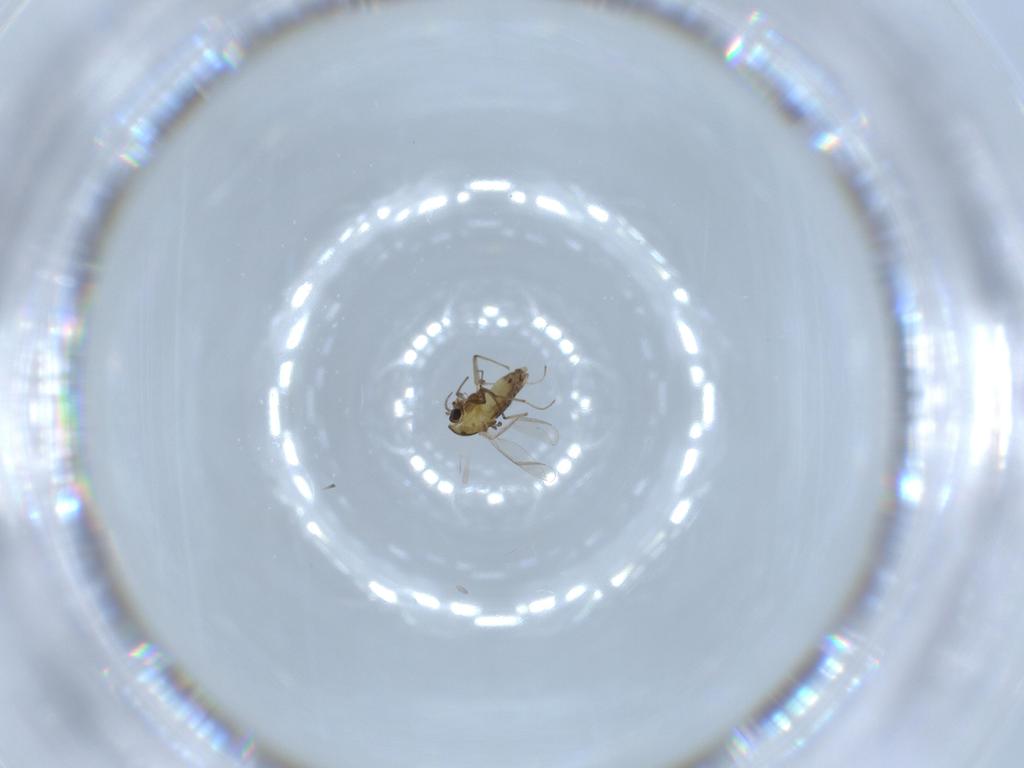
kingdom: Animalia
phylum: Arthropoda
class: Insecta
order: Diptera
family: Chironomidae
